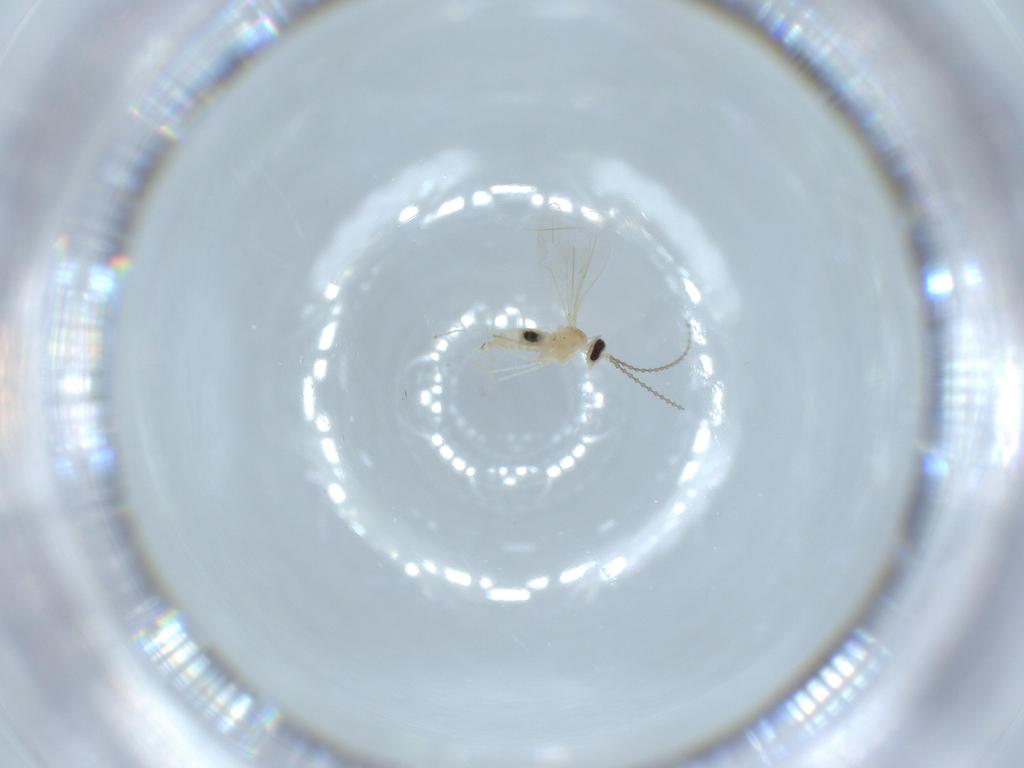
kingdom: Animalia
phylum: Arthropoda
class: Insecta
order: Diptera
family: Cecidomyiidae
